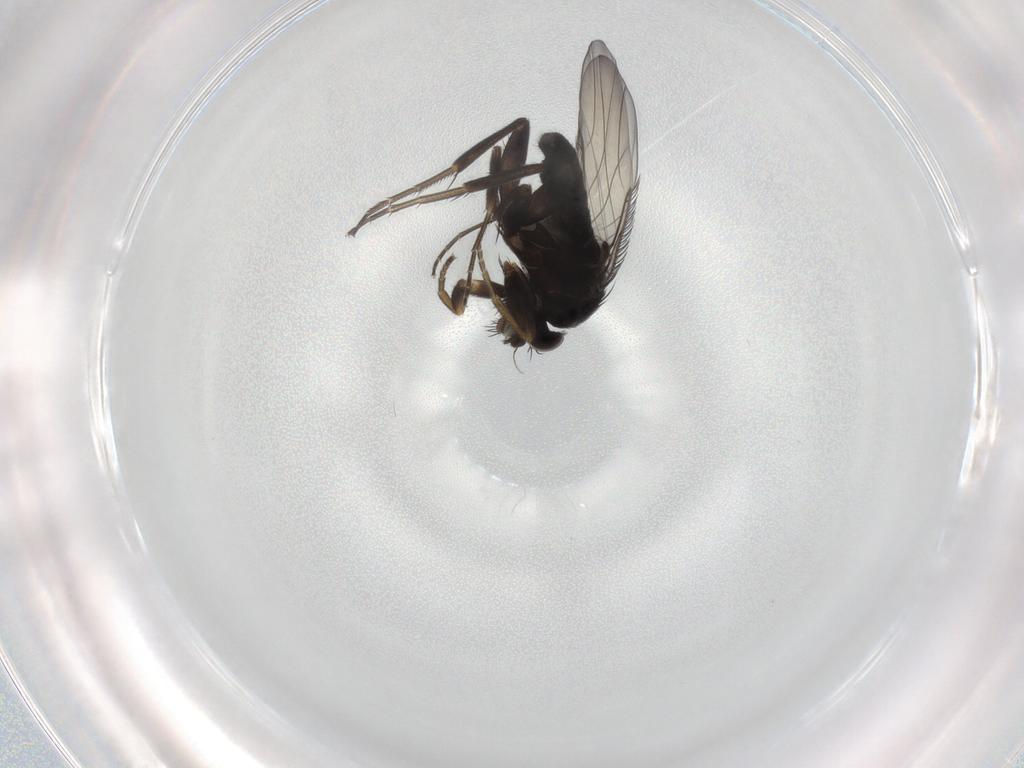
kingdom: Animalia
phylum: Arthropoda
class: Insecta
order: Diptera
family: Phoridae
